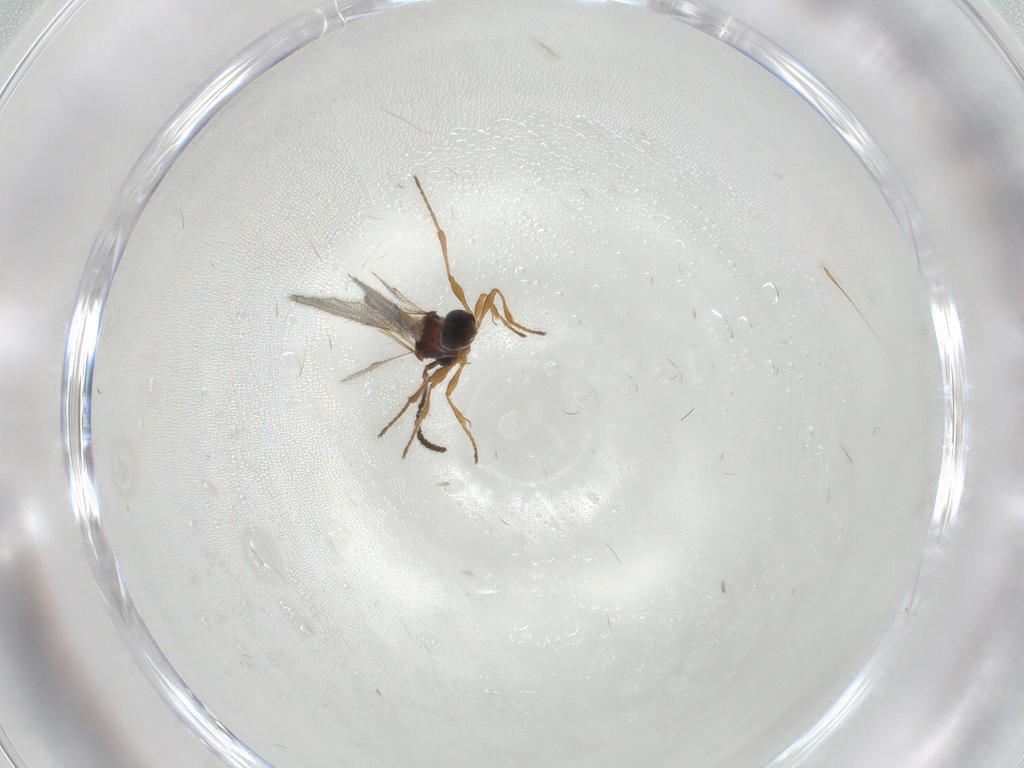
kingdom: Animalia
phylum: Arthropoda
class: Insecta
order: Hymenoptera
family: Diapriidae
